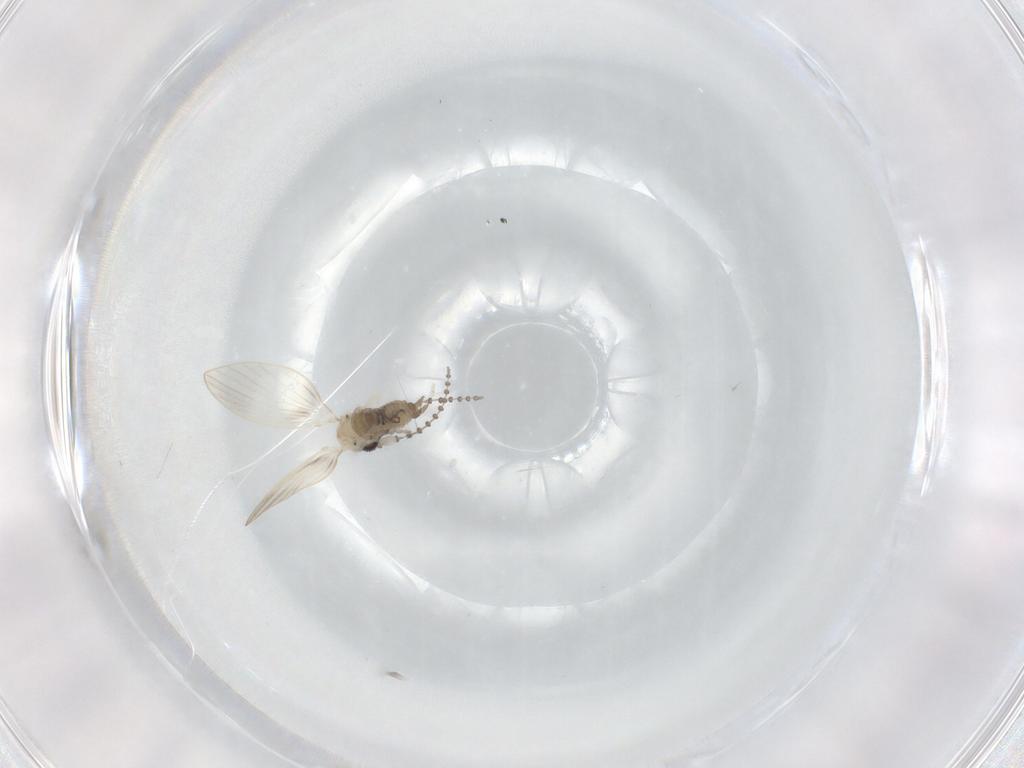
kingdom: Animalia
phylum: Arthropoda
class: Insecta
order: Diptera
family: Psychodidae
